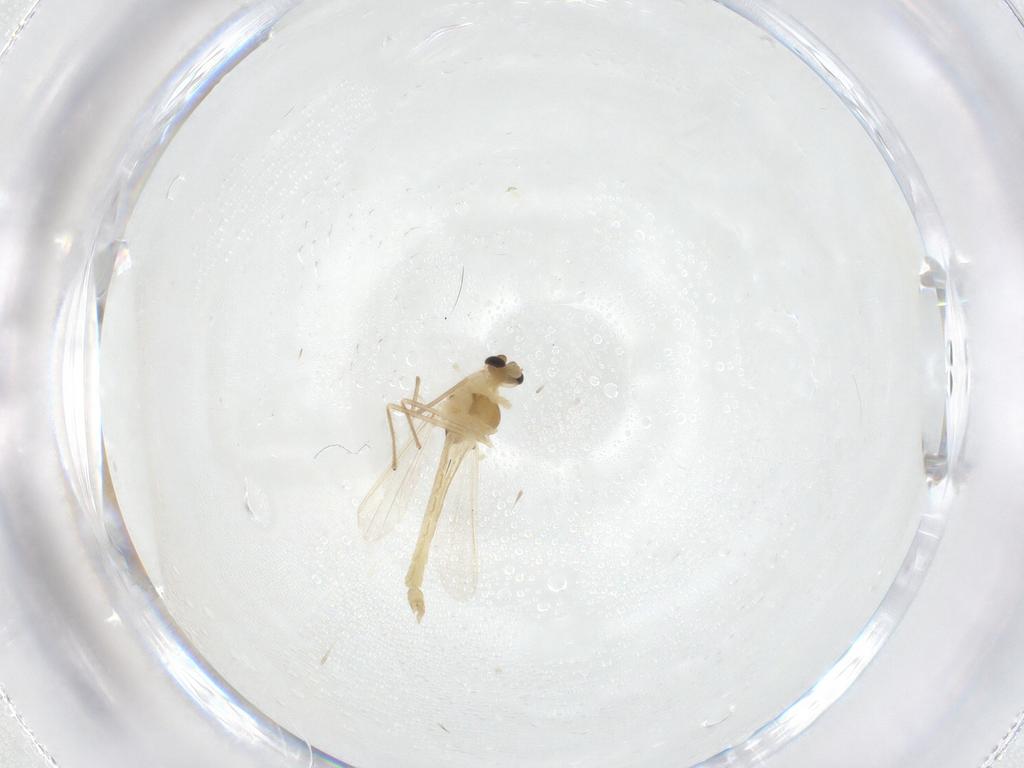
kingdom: Animalia
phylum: Arthropoda
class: Insecta
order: Diptera
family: Chironomidae
